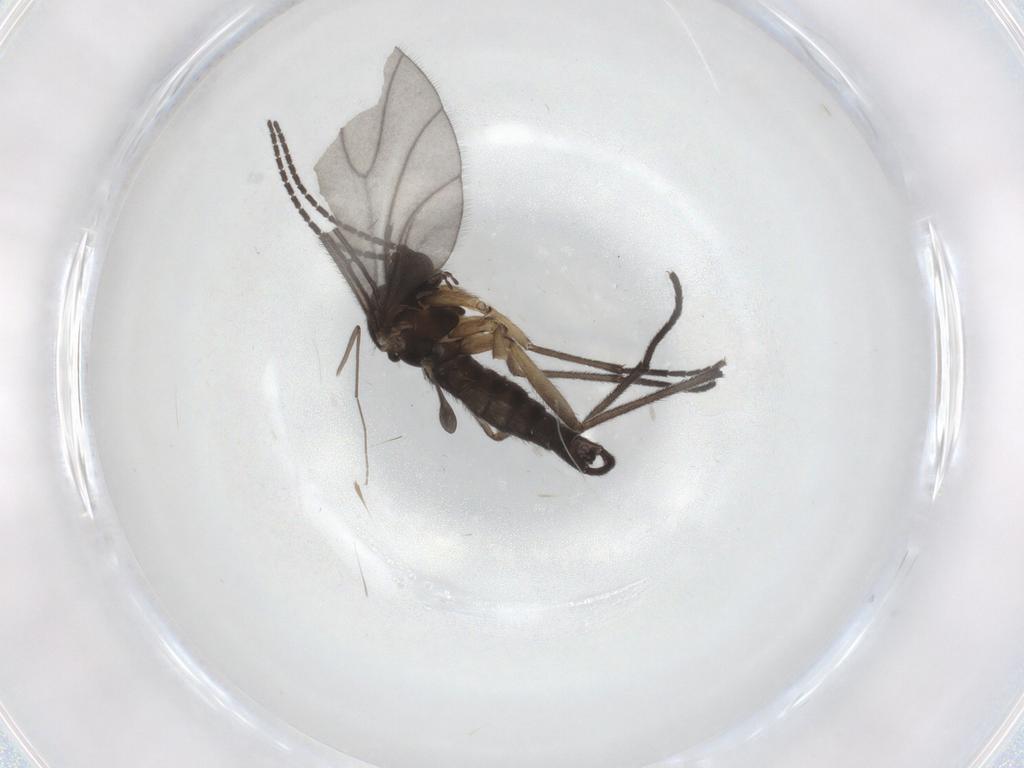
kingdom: Animalia
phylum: Arthropoda
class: Insecta
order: Diptera
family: Sciaridae
